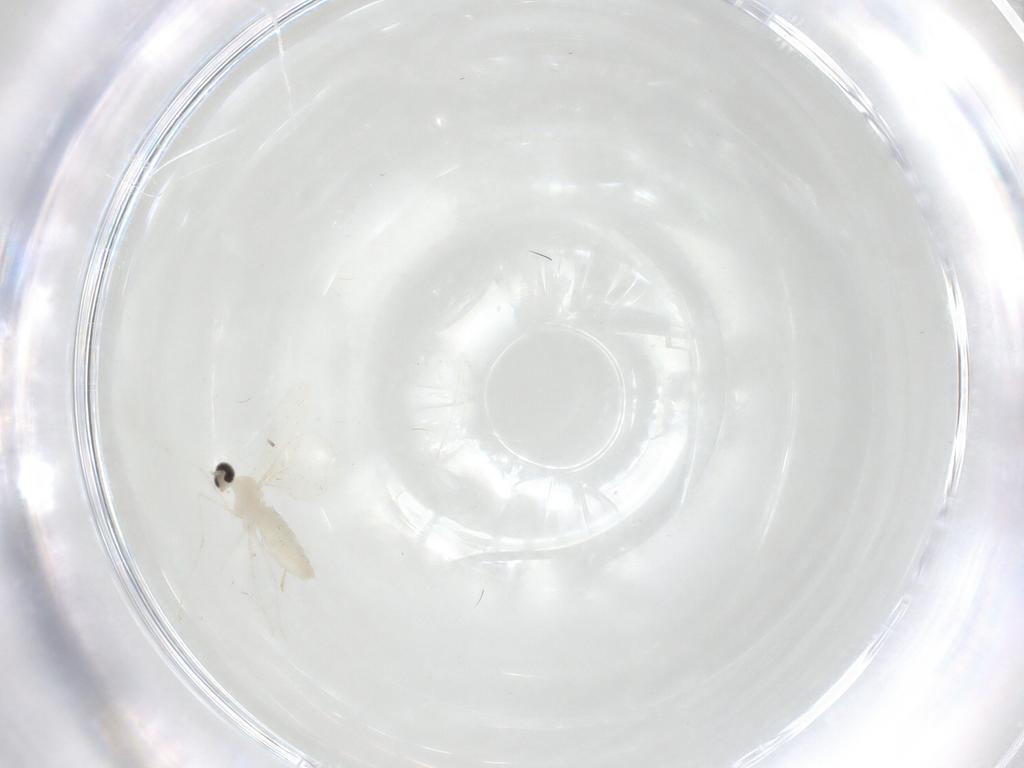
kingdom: Animalia
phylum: Arthropoda
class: Insecta
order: Diptera
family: Cecidomyiidae
